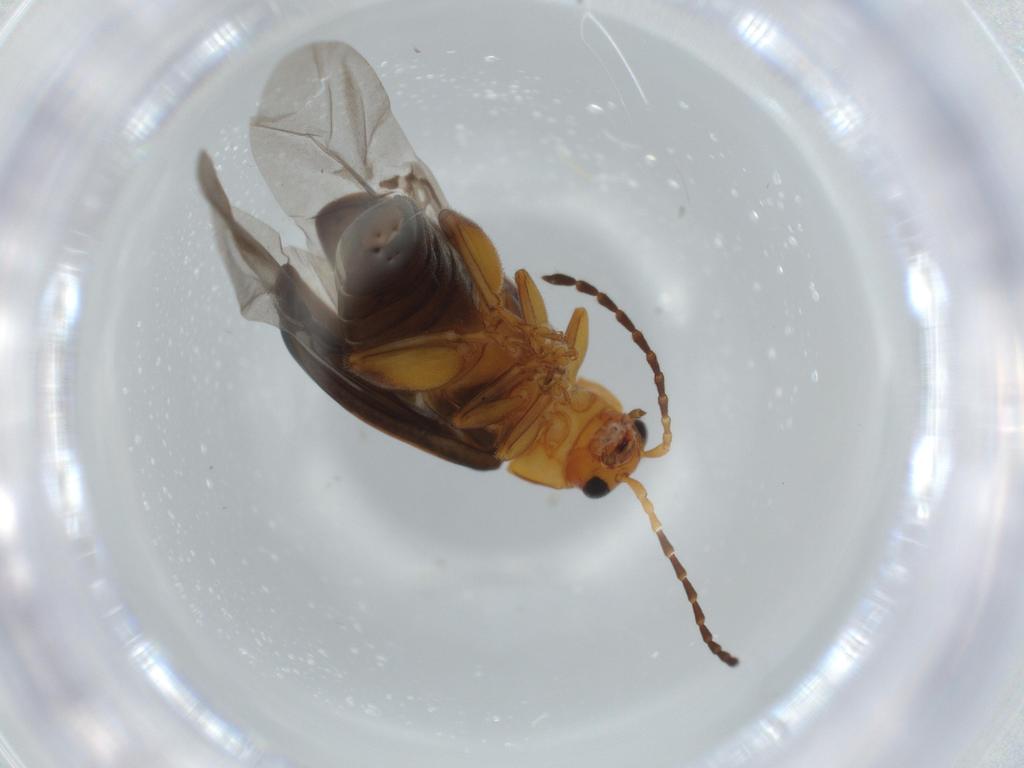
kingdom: Animalia
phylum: Arthropoda
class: Insecta
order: Coleoptera
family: Chrysomelidae
